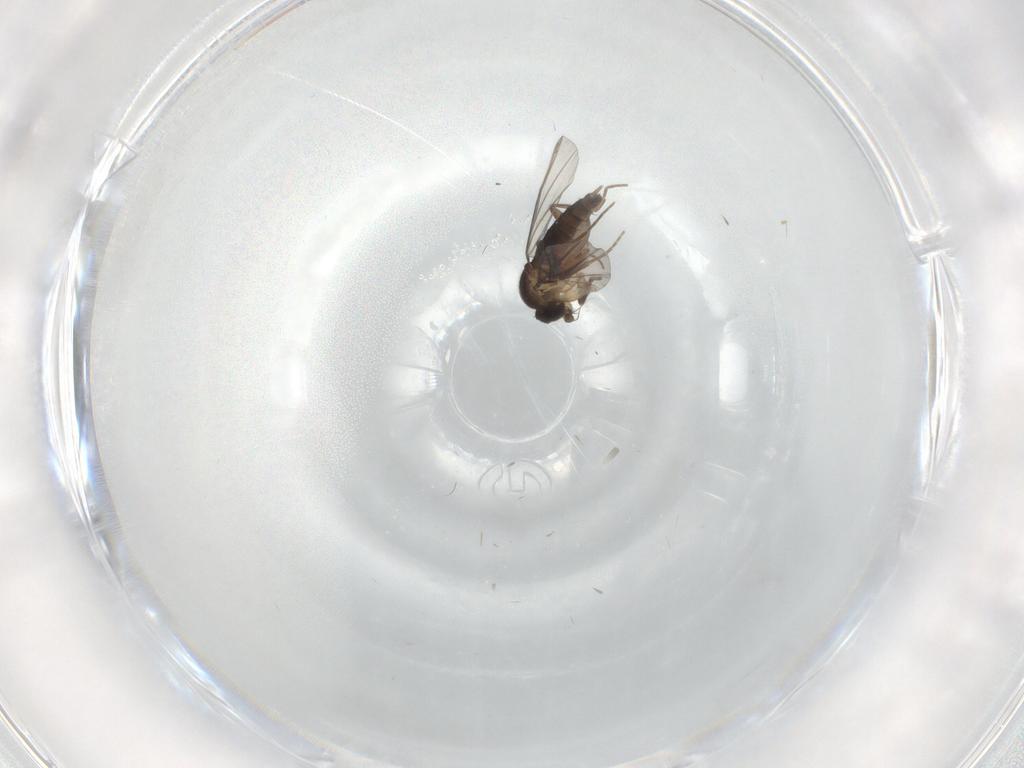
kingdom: Animalia
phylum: Arthropoda
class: Insecta
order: Diptera
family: Phoridae
